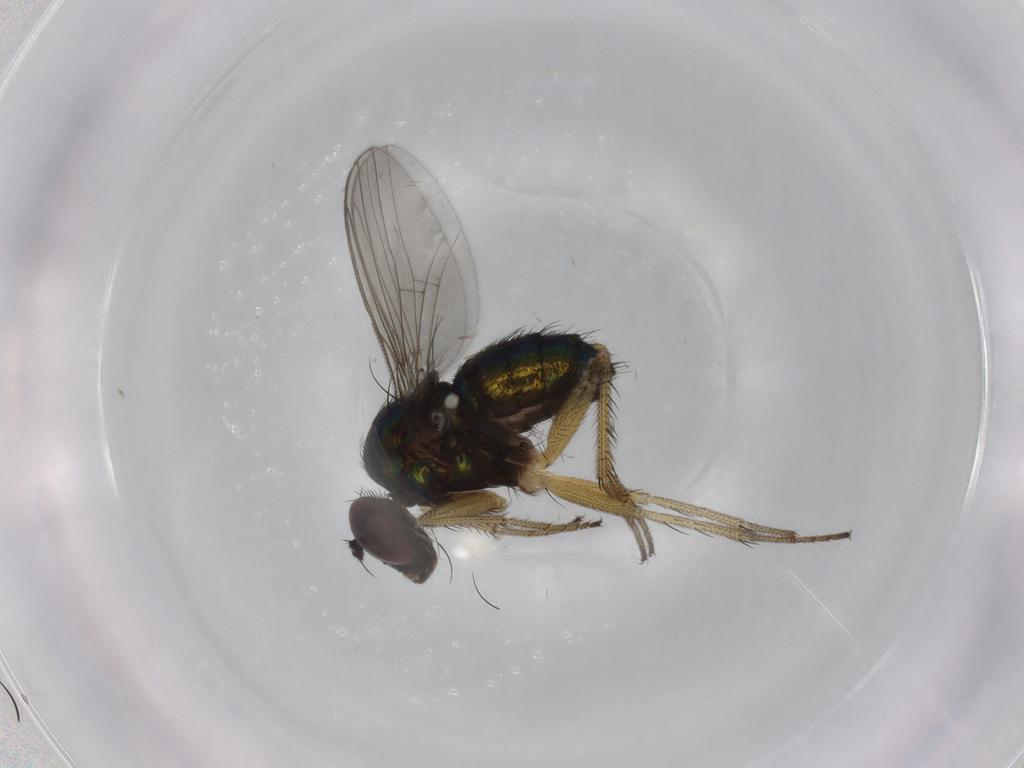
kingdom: Animalia
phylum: Arthropoda
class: Insecta
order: Diptera
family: Dolichopodidae
